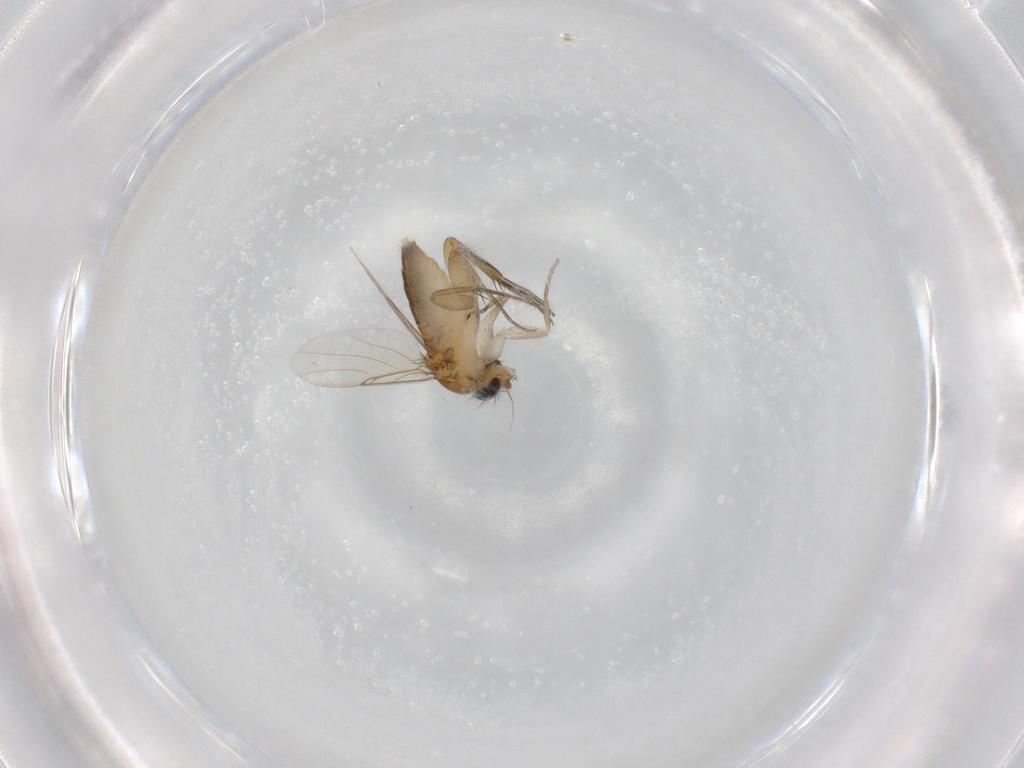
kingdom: Animalia
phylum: Arthropoda
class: Insecta
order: Diptera
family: Phoridae
